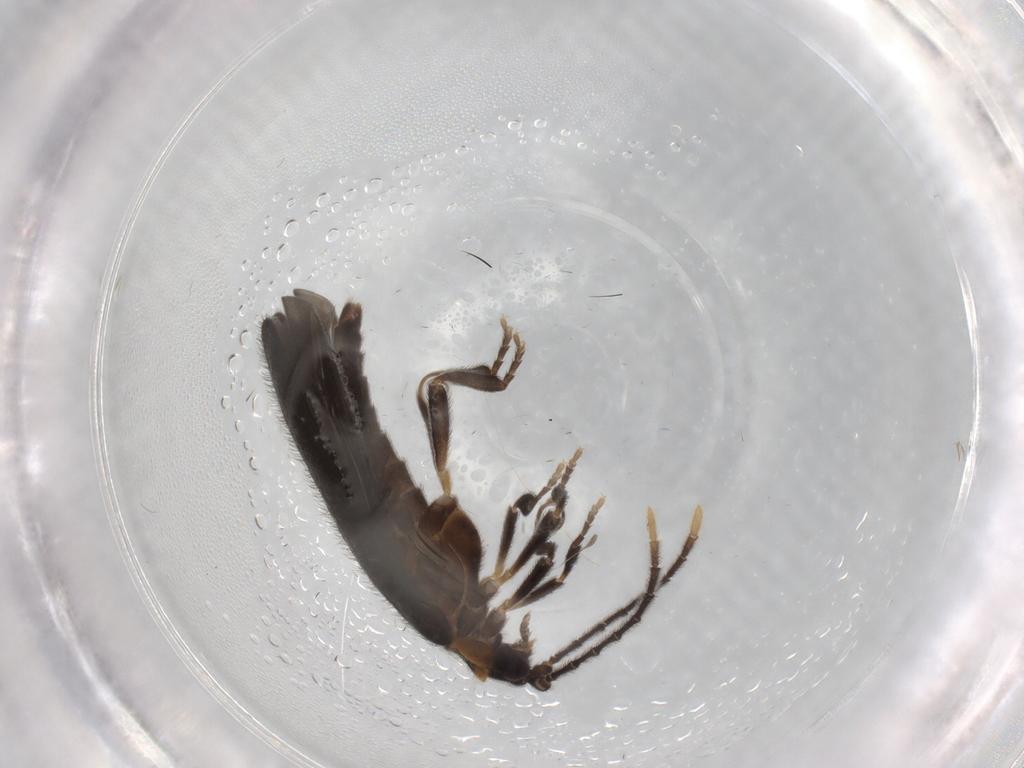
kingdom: Animalia
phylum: Arthropoda
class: Insecta
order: Coleoptera
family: Lycidae
